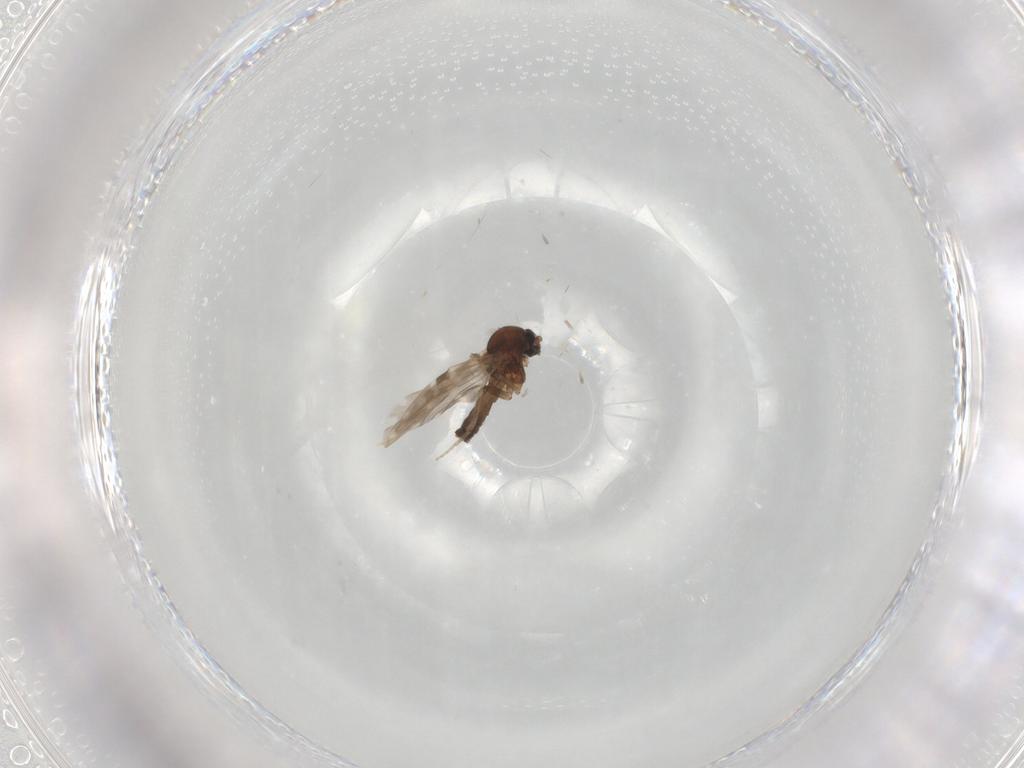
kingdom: Animalia
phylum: Arthropoda
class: Insecta
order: Diptera
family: Ceratopogonidae
